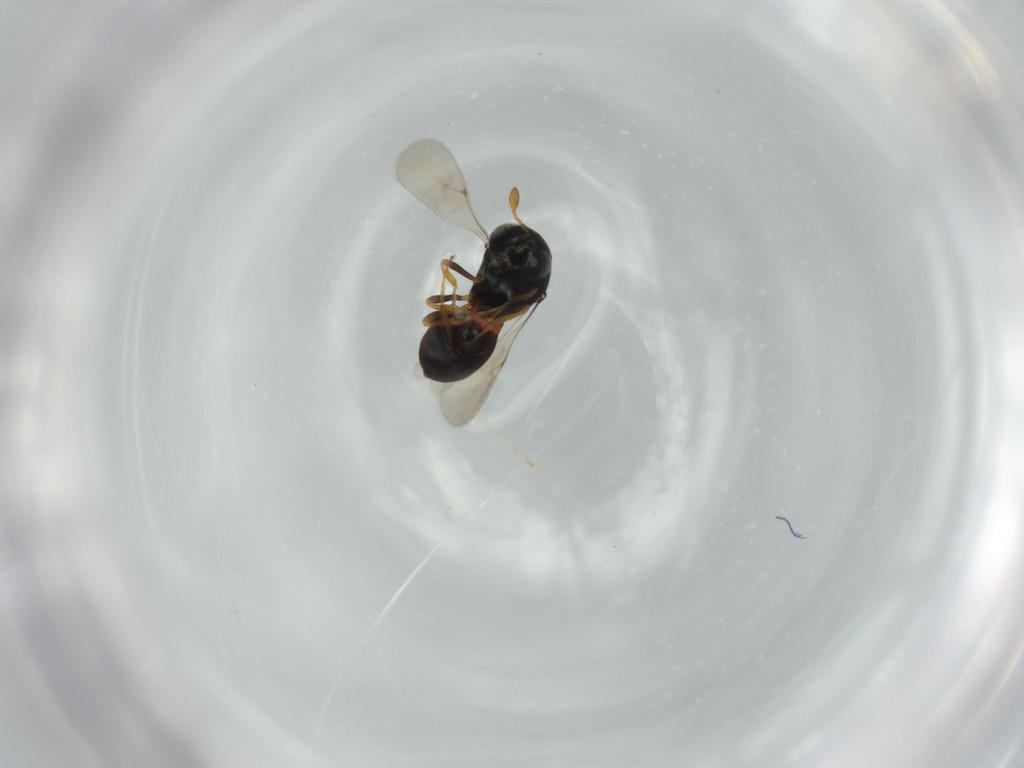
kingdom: Animalia
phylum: Arthropoda
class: Insecta
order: Hymenoptera
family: Scelionidae
